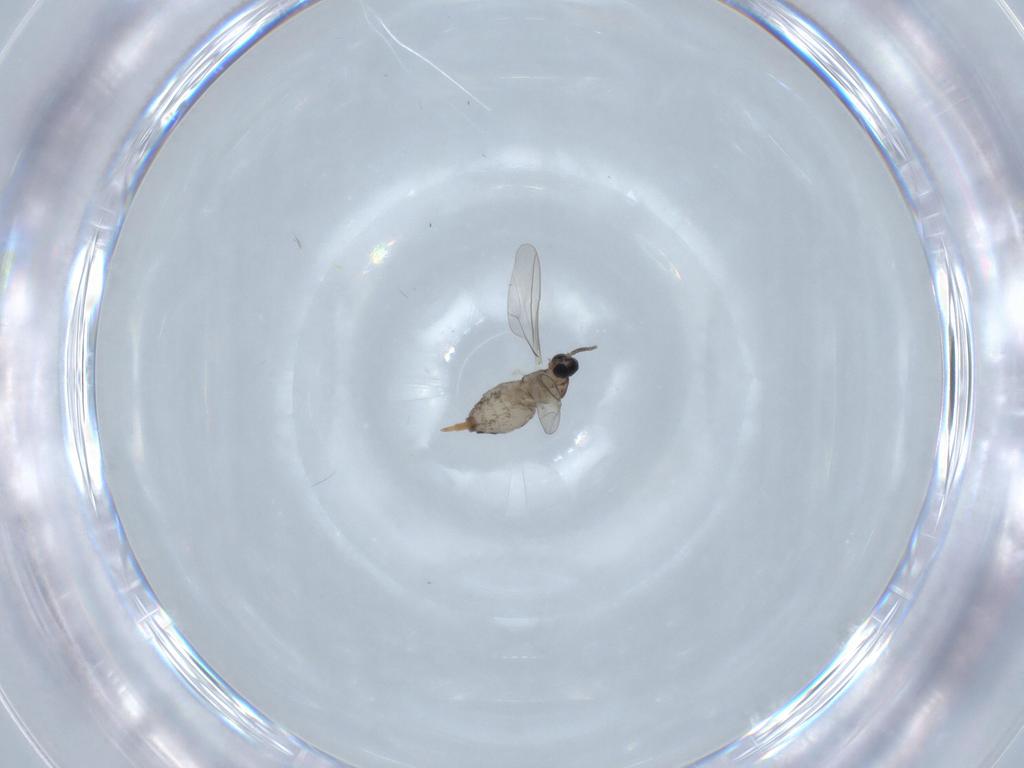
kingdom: Animalia
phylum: Arthropoda
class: Insecta
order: Diptera
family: Cecidomyiidae
